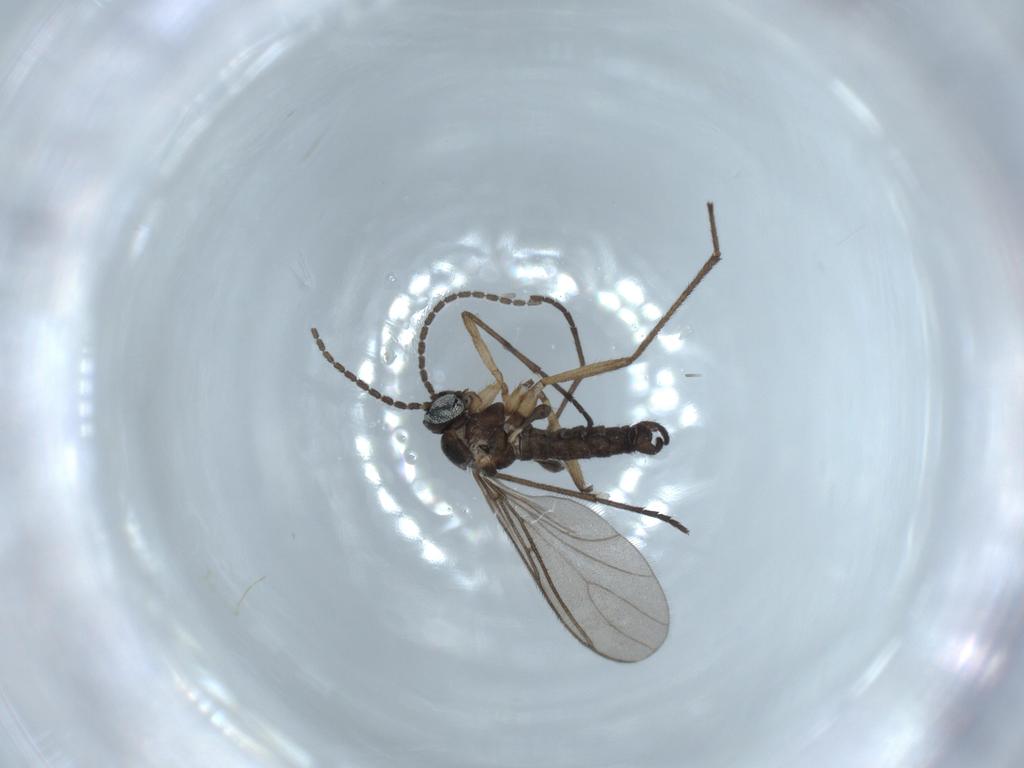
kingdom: Animalia
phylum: Arthropoda
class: Insecta
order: Diptera
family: Sciaridae
